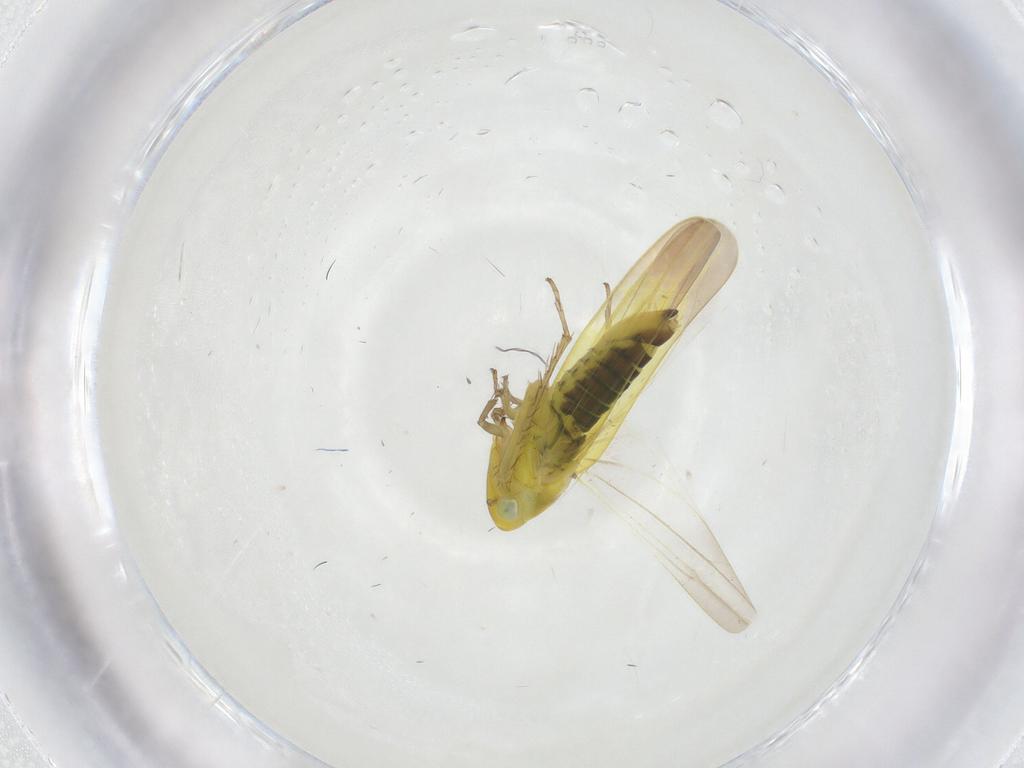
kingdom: Animalia
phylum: Arthropoda
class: Insecta
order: Hemiptera
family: Cicadellidae
